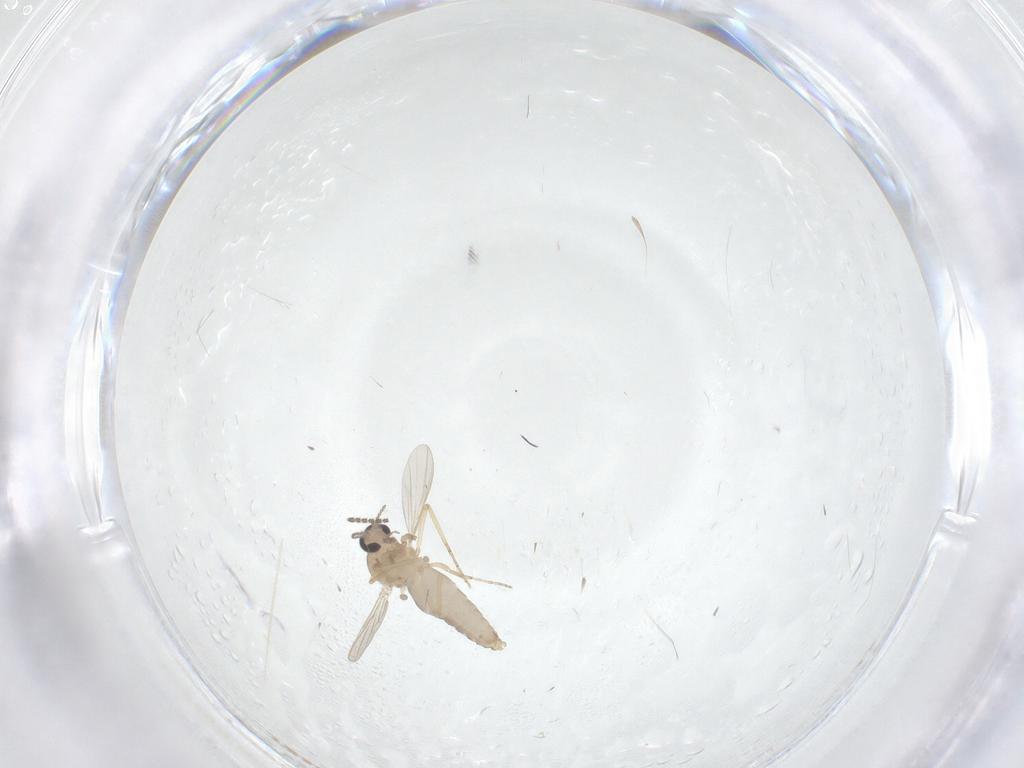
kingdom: Animalia
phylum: Arthropoda
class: Insecta
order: Diptera
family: Ceratopogonidae
